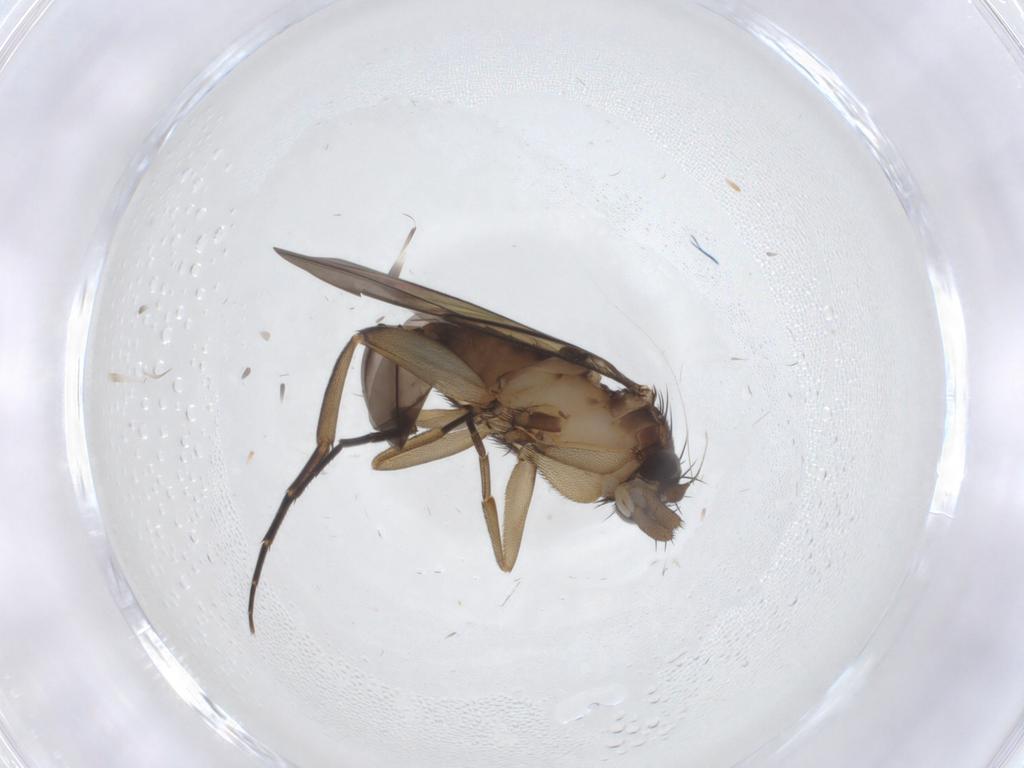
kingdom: Animalia
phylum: Arthropoda
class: Insecta
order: Diptera
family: Phoridae
